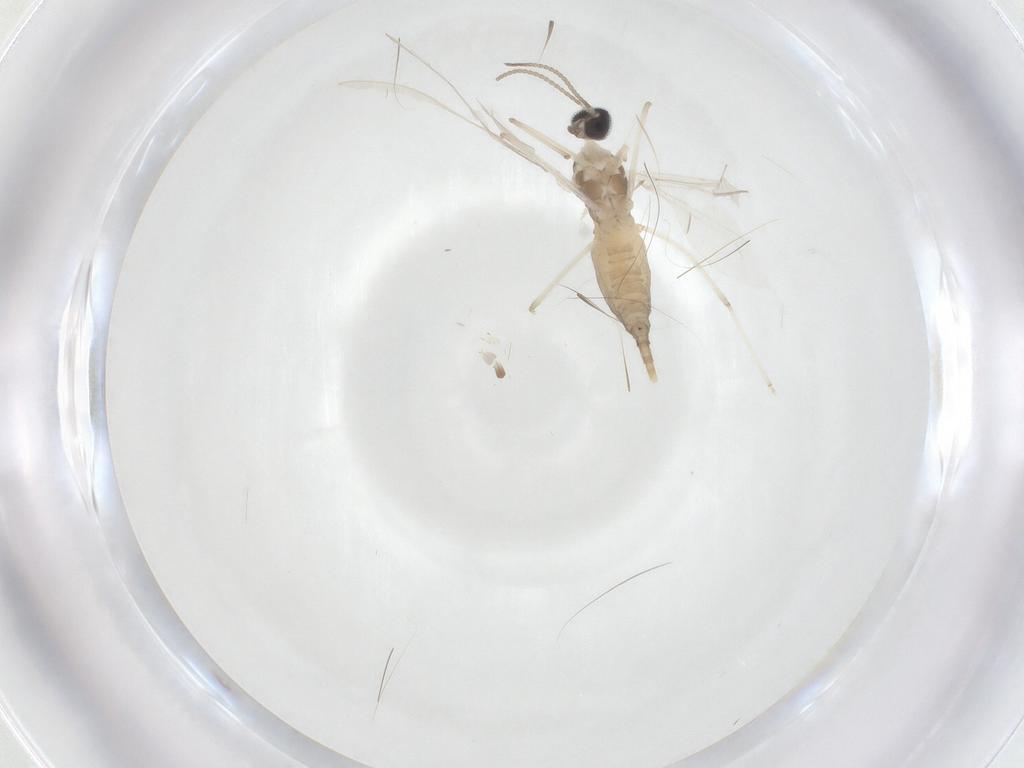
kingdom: Animalia
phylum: Arthropoda
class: Insecta
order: Diptera
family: Cecidomyiidae
